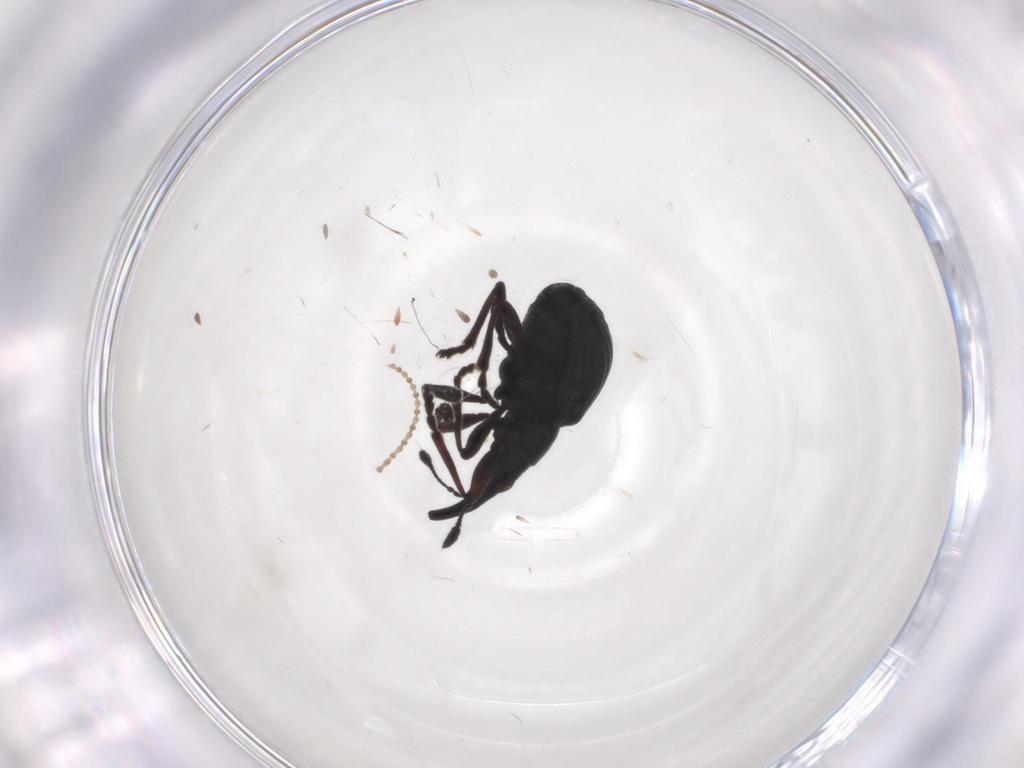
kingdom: Animalia
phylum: Arthropoda
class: Insecta
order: Coleoptera
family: Brentidae
